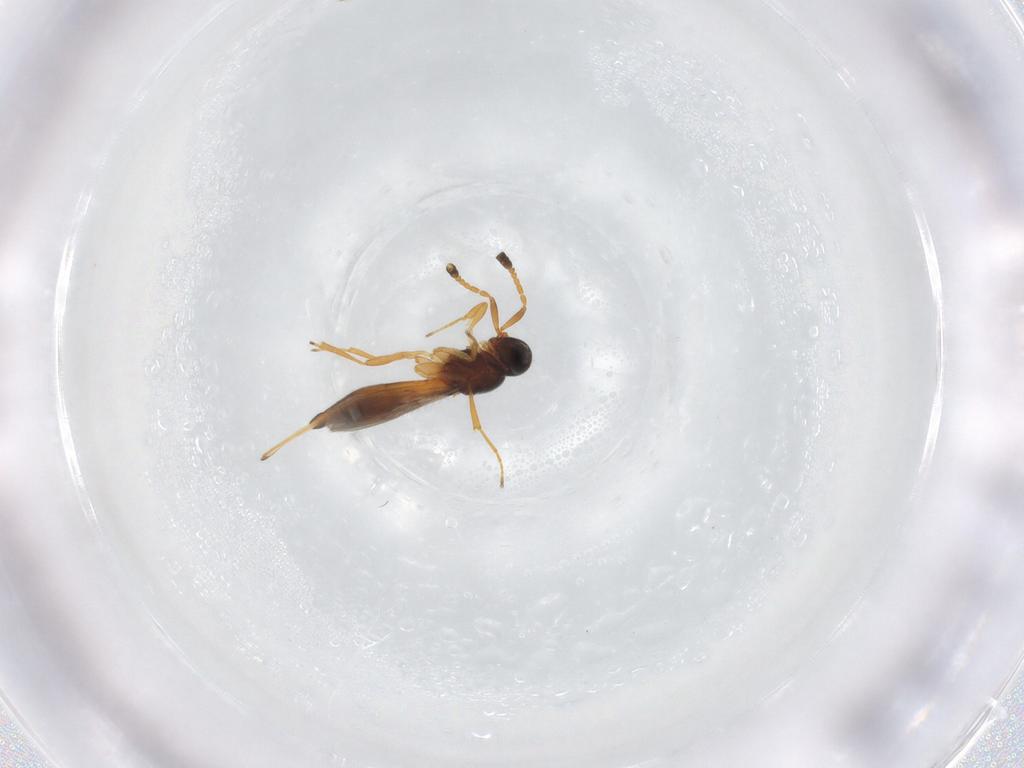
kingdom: Animalia
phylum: Arthropoda
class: Insecta
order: Hymenoptera
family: Scelionidae
